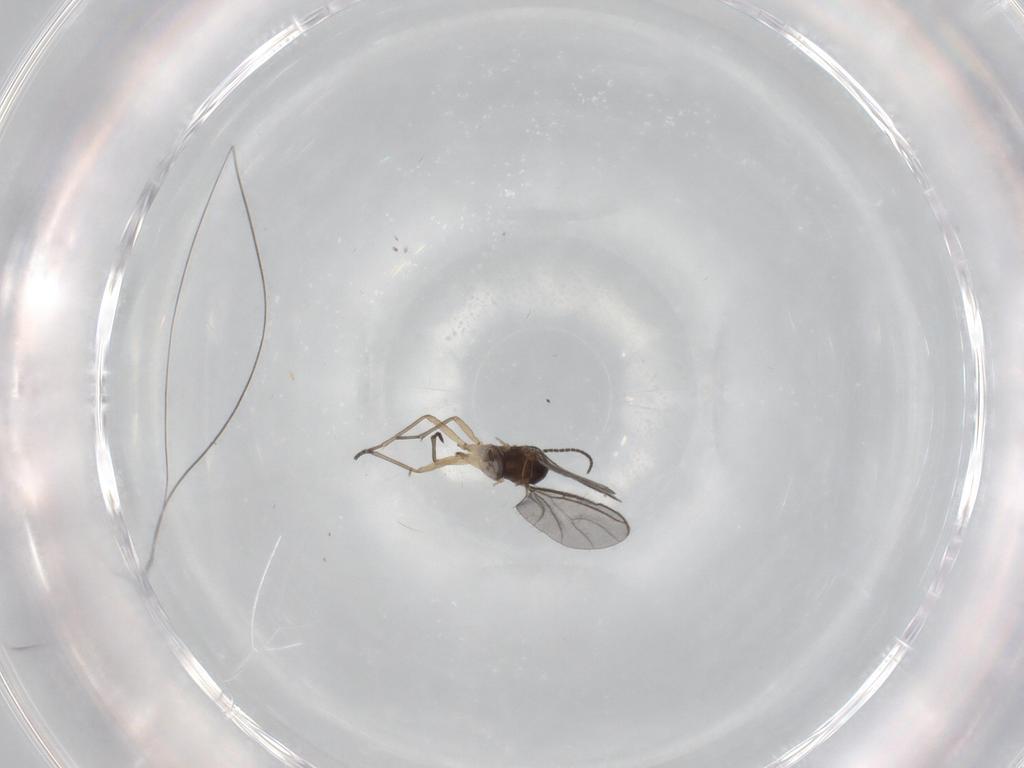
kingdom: Animalia
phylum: Arthropoda
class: Insecta
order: Diptera
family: Sciaridae
